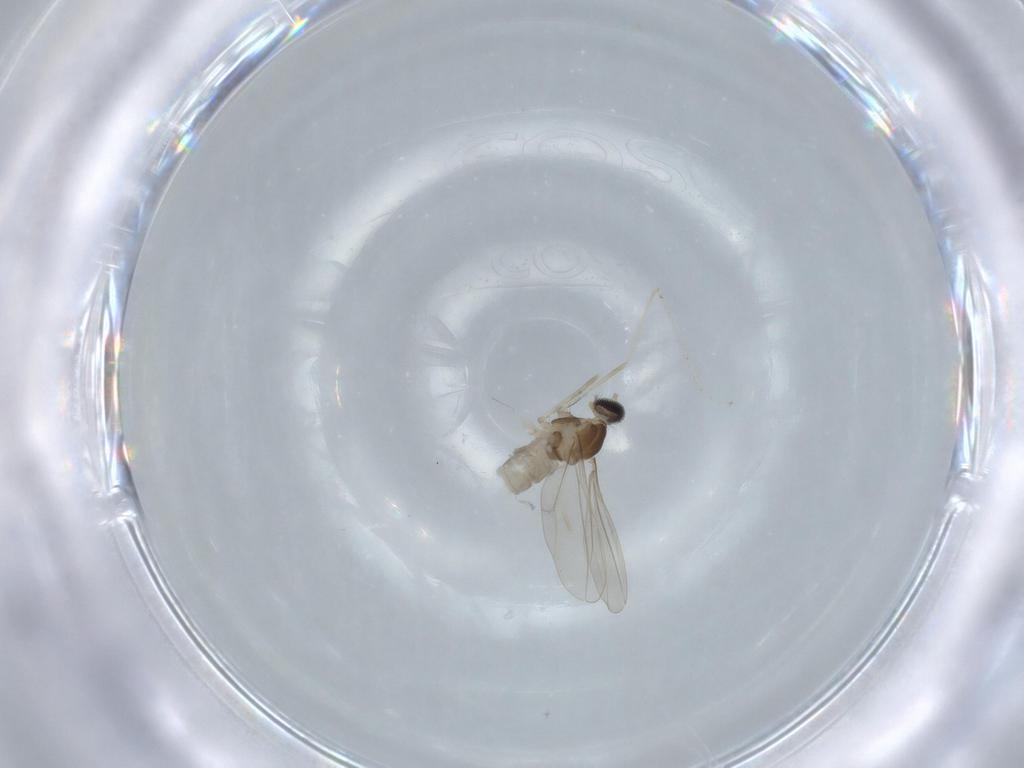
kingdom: Animalia
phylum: Arthropoda
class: Insecta
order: Diptera
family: Cecidomyiidae
